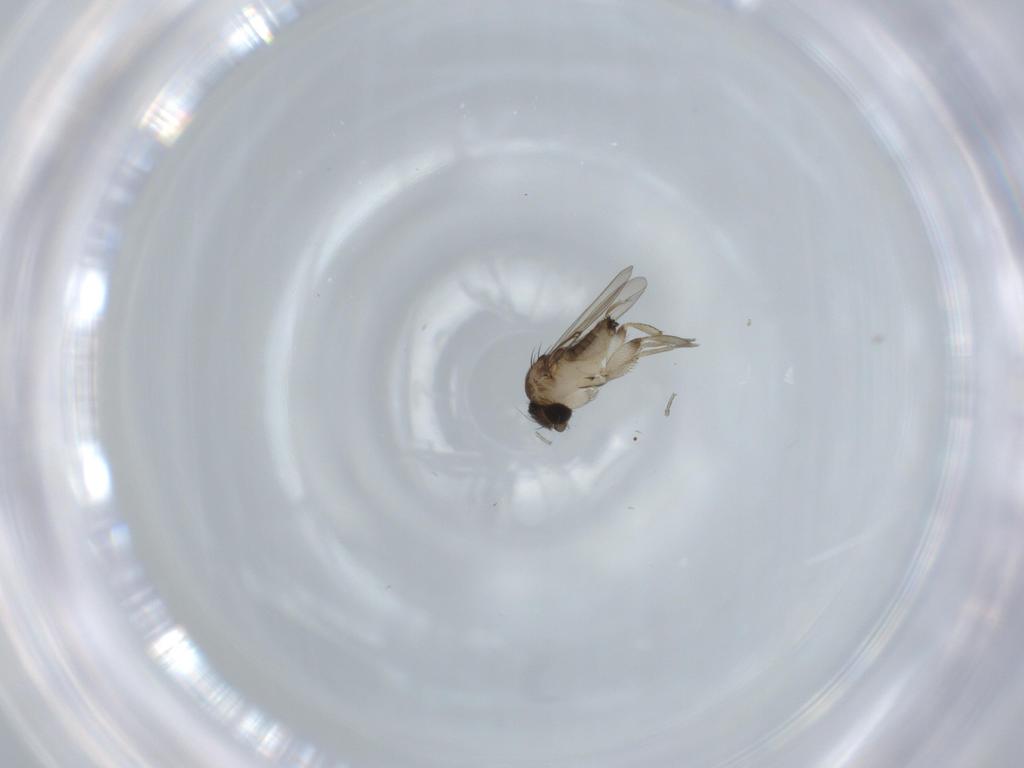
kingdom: Animalia
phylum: Arthropoda
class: Insecta
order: Diptera
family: Phoridae
